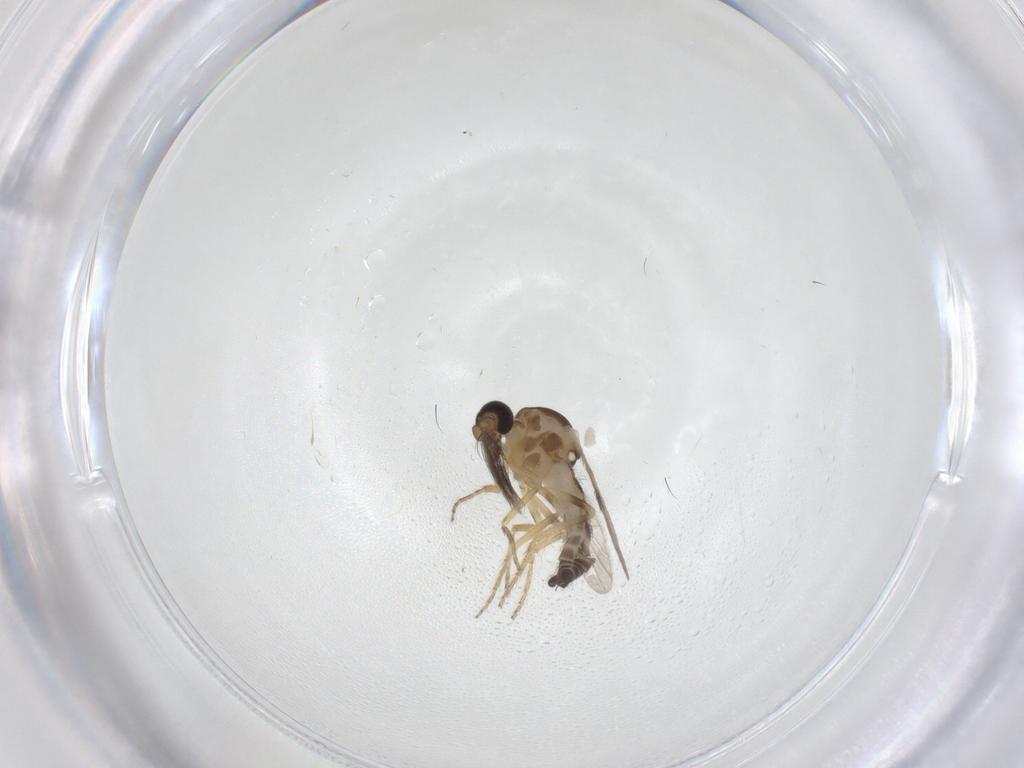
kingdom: Animalia
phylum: Arthropoda
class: Insecta
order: Diptera
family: Ceratopogonidae
